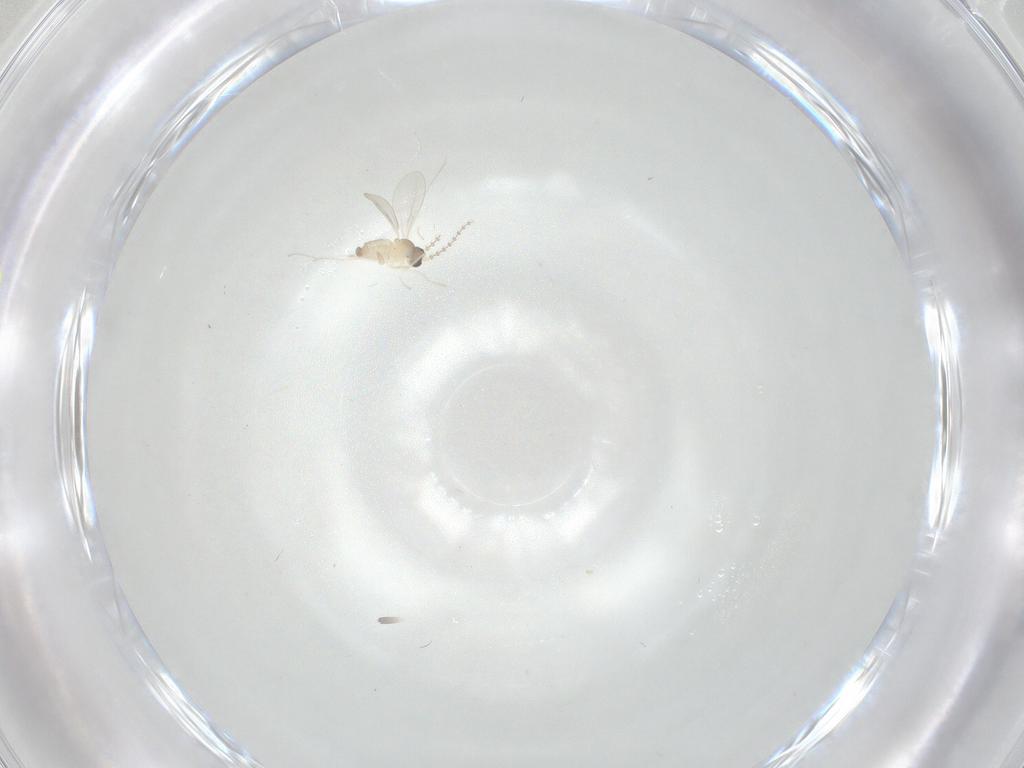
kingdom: Animalia
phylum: Arthropoda
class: Insecta
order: Diptera
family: Cecidomyiidae
